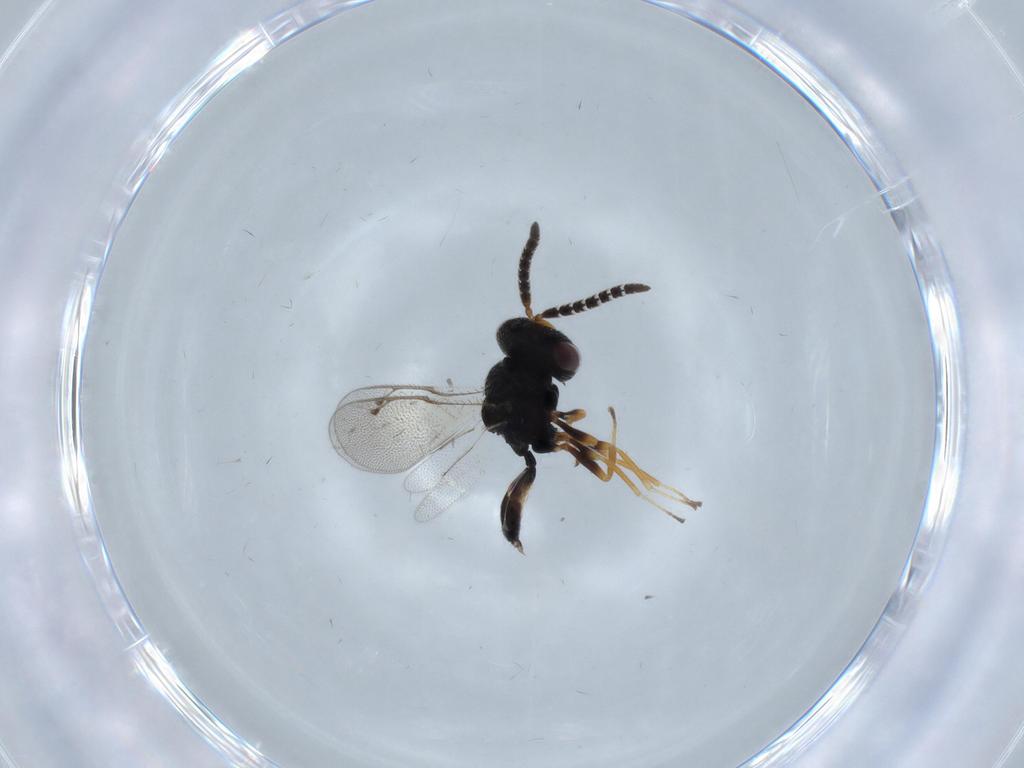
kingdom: Animalia
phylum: Arthropoda
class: Insecta
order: Hymenoptera
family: Agaonidae
